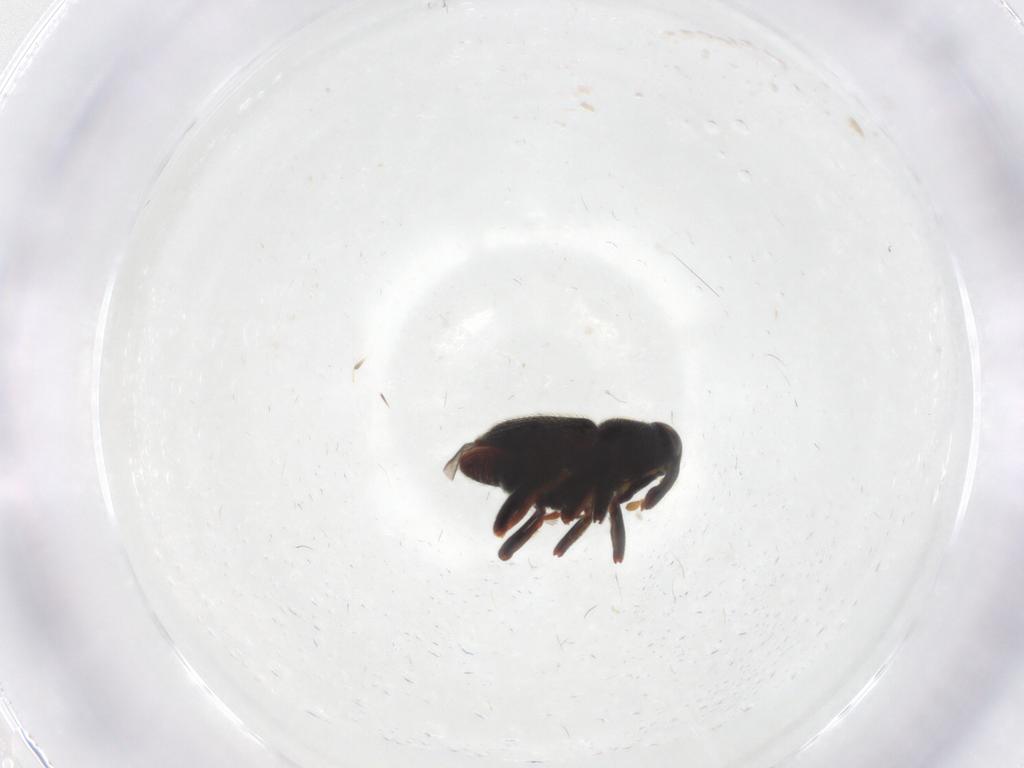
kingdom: Animalia
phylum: Arthropoda
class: Insecta
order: Coleoptera
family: Curculionidae
